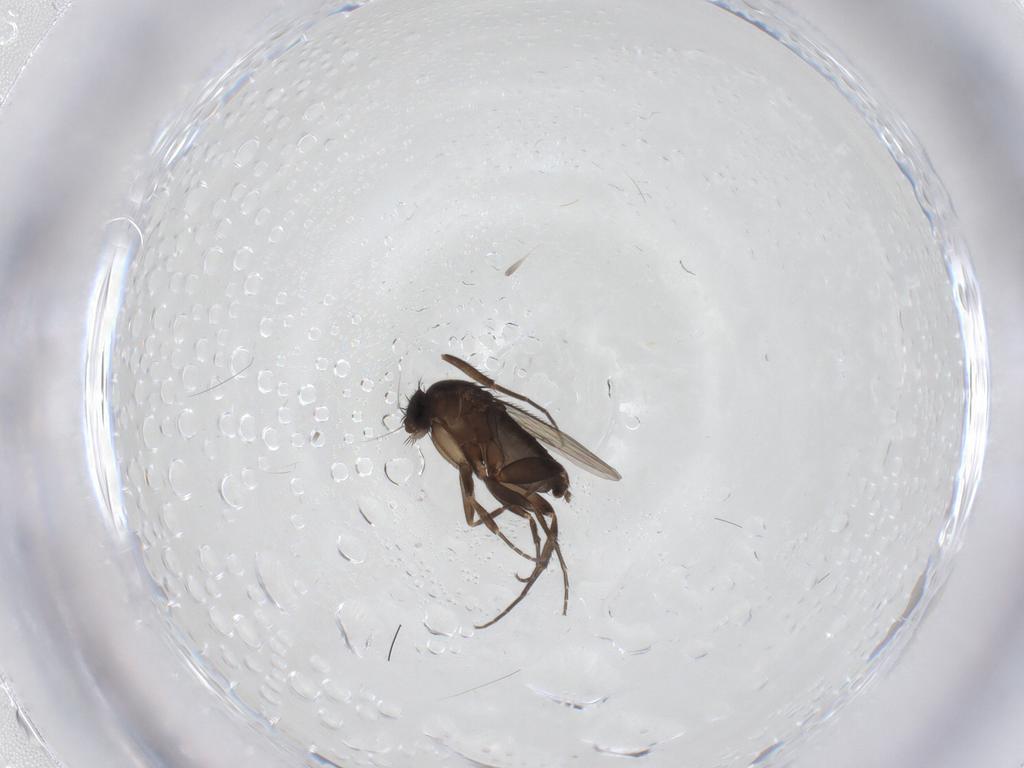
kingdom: Animalia
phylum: Arthropoda
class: Insecta
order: Diptera
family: Phoridae
